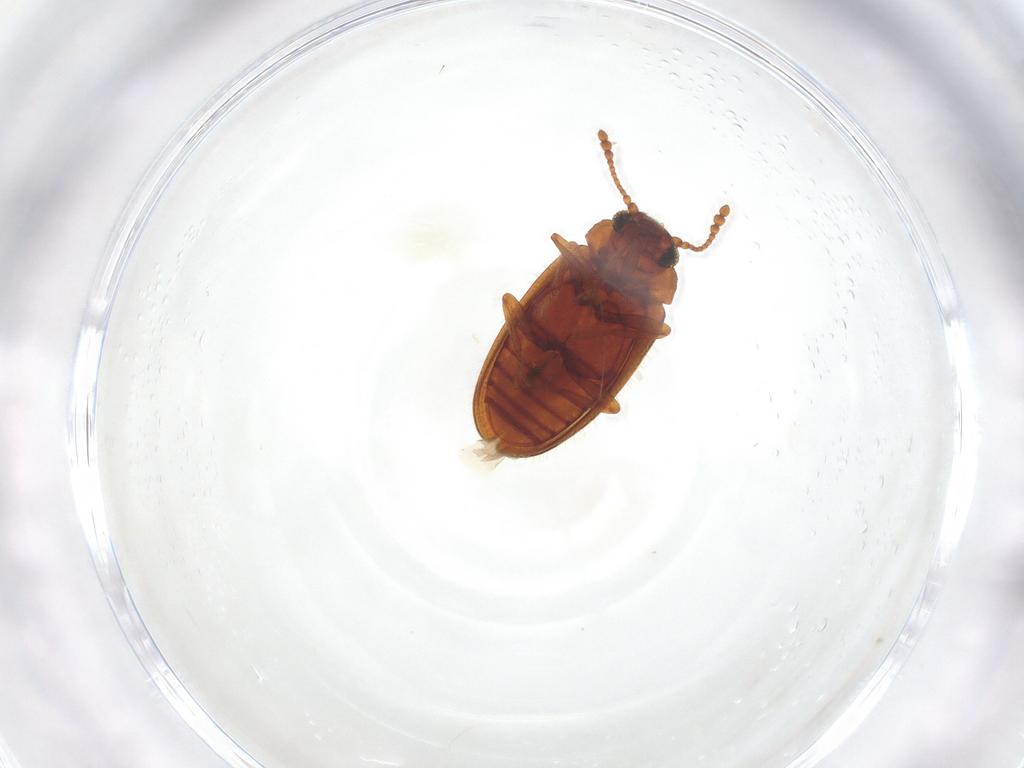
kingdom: Animalia
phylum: Arthropoda
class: Insecta
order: Coleoptera
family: Erotylidae
